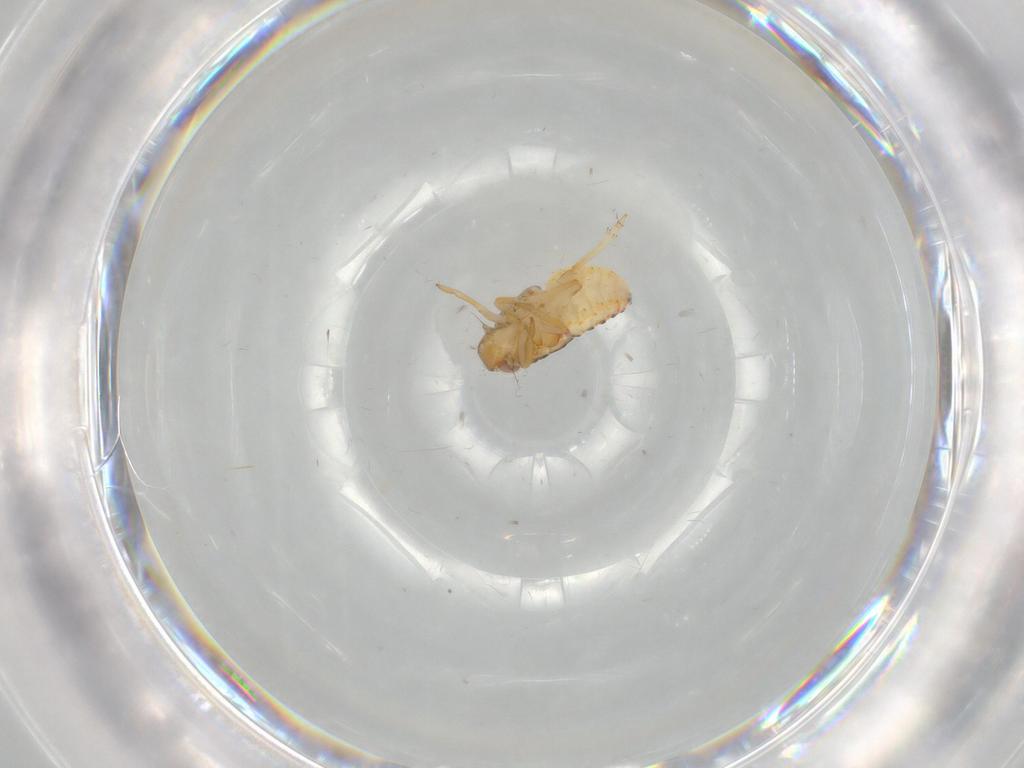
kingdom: Animalia
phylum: Arthropoda
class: Insecta
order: Hemiptera
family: Issidae
